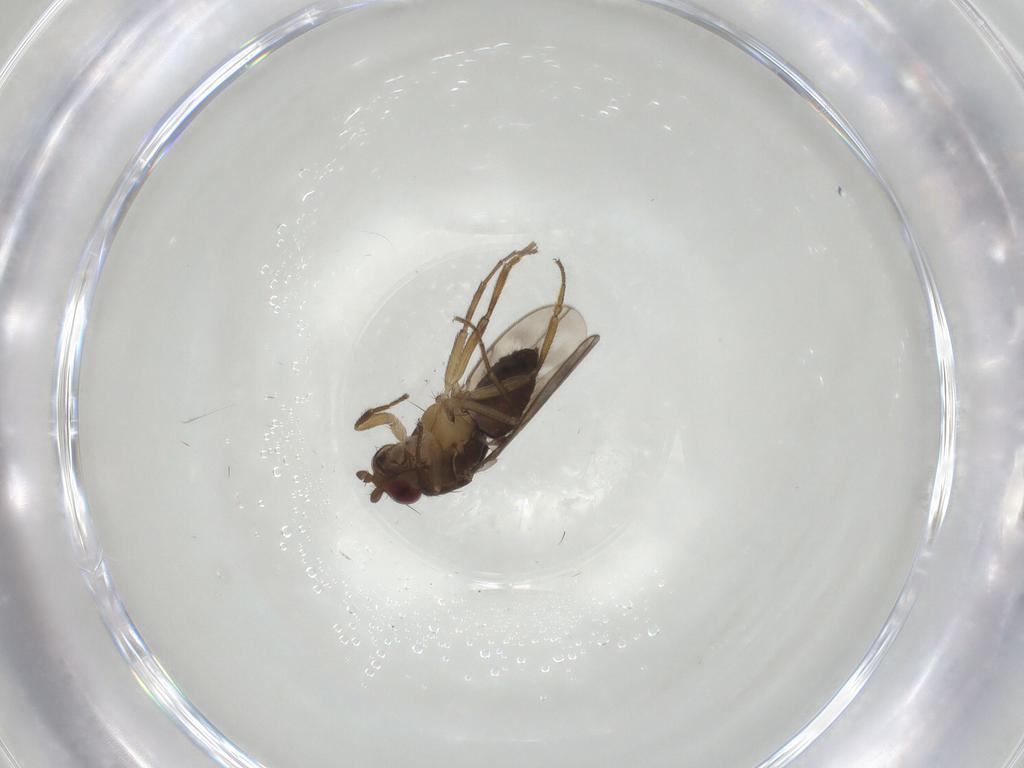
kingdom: Animalia
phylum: Arthropoda
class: Insecta
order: Diptera
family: Sphaeroceridae
